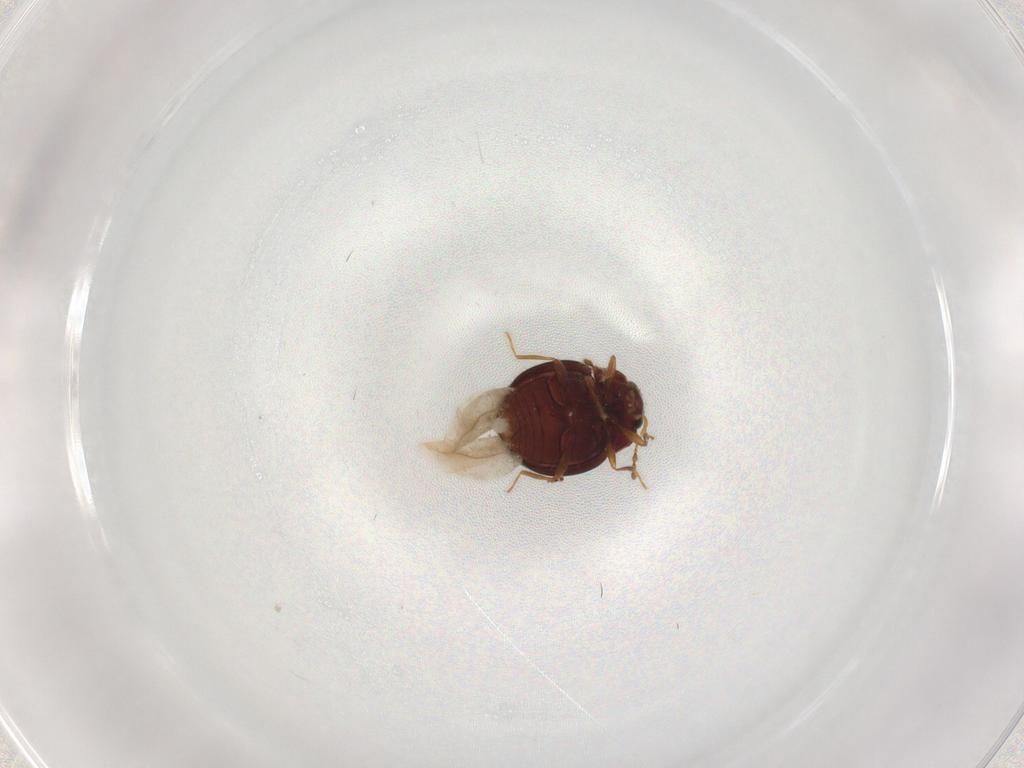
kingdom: Animalia
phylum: Arthropoda
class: Insecta
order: Coleoptera
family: Anamorphidae
